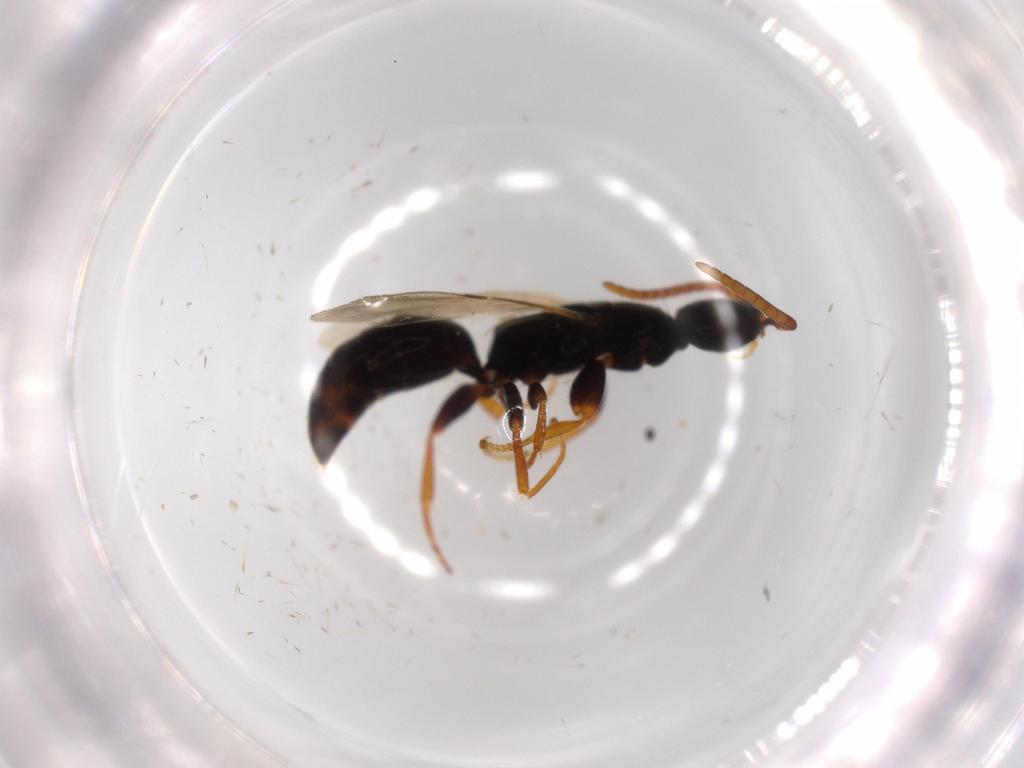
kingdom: Animalia
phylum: Arthropoda
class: Insecta
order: Hymenoptera
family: Bethylidae
